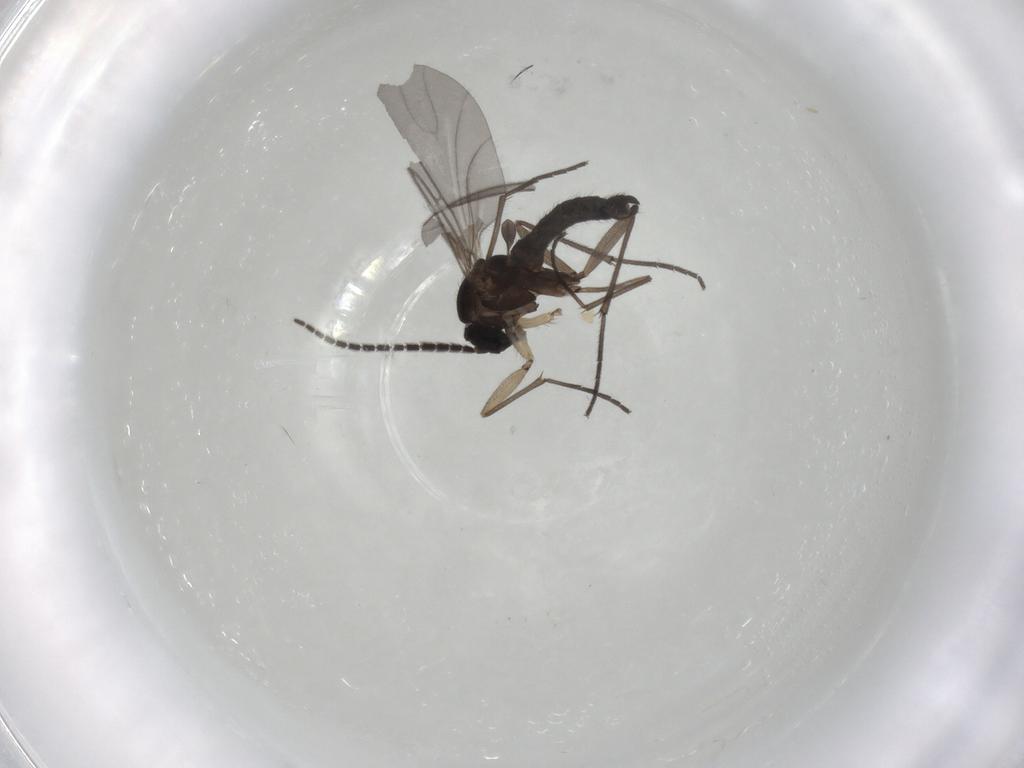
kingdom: Animalia
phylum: Arthropoda
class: Insecta
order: Diptera
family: Sciaridae
